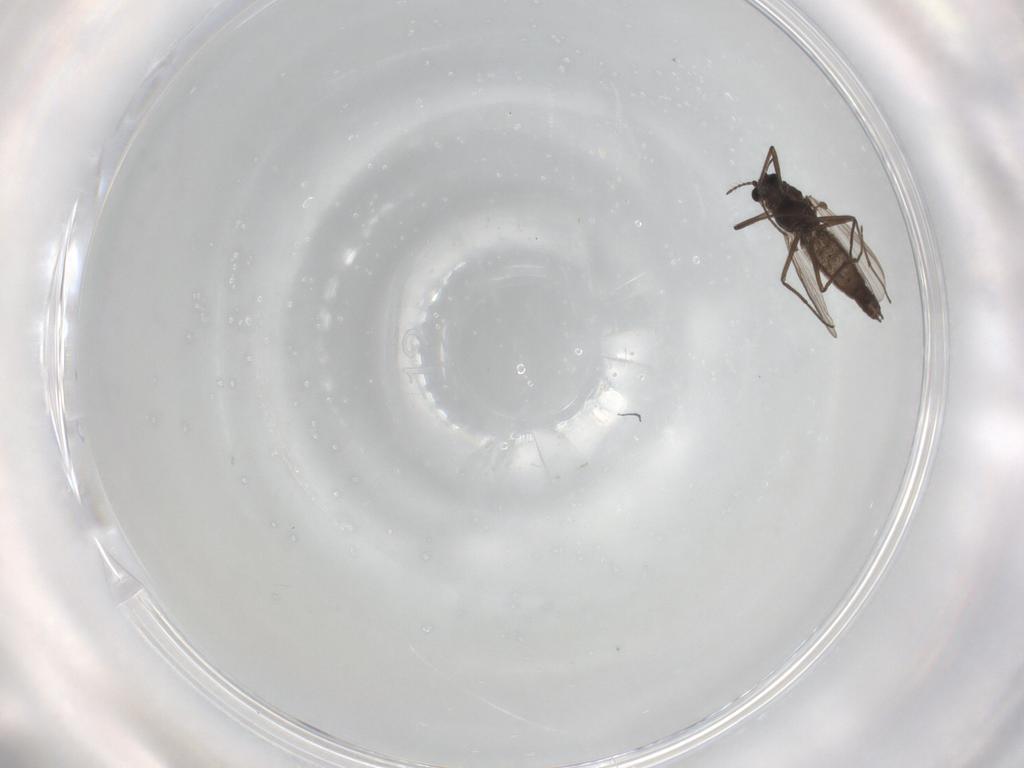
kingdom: Animalia
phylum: Arthropoda
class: Insecta
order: Diptera
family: Chironomidae
